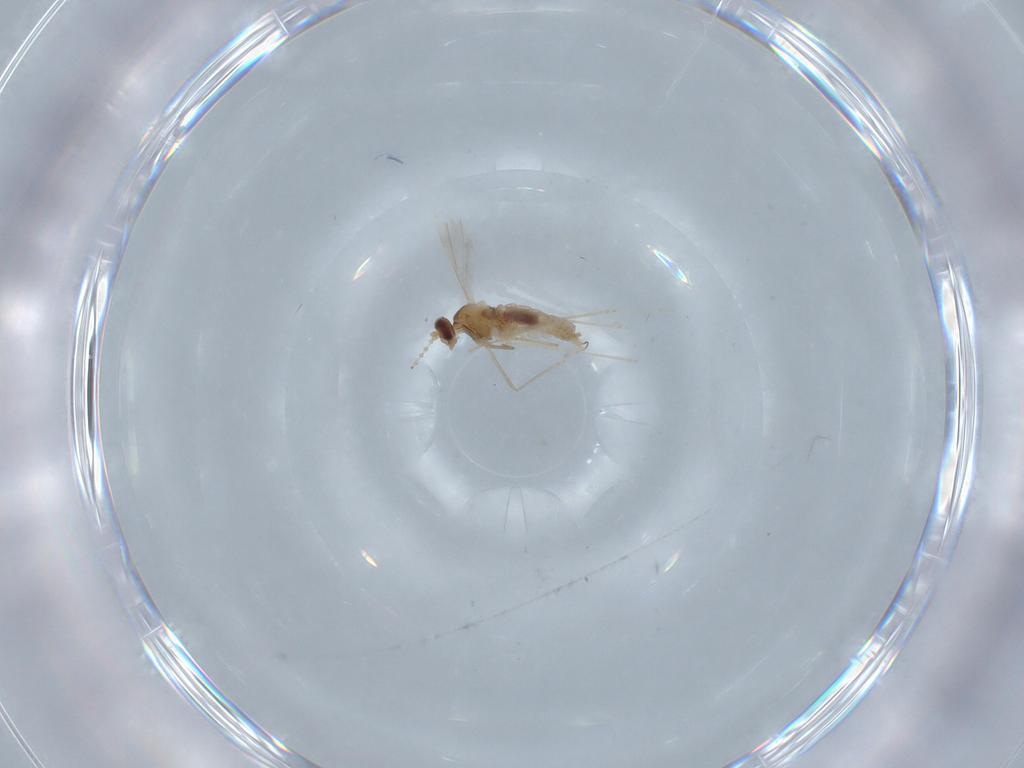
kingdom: Animalia
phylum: Arthropoda
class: Insecta
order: Diptera
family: Cecidomyiidae
